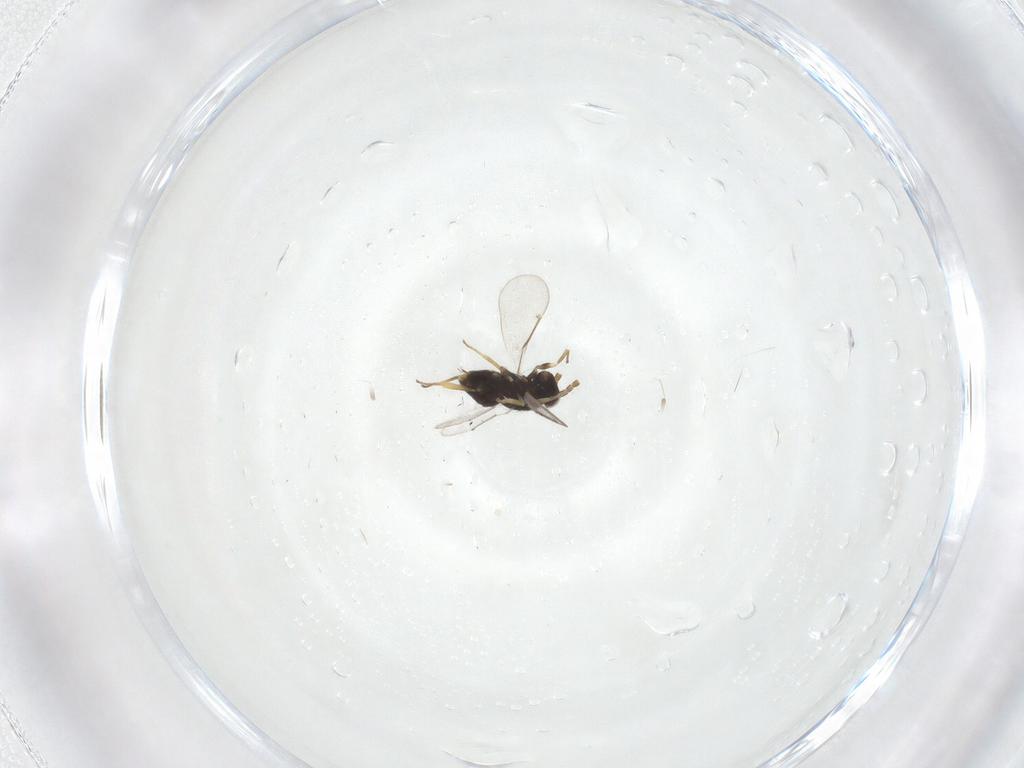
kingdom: Animalia
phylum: Arthropoda
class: Insecta
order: Hymenoptera
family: Aphelinidae
